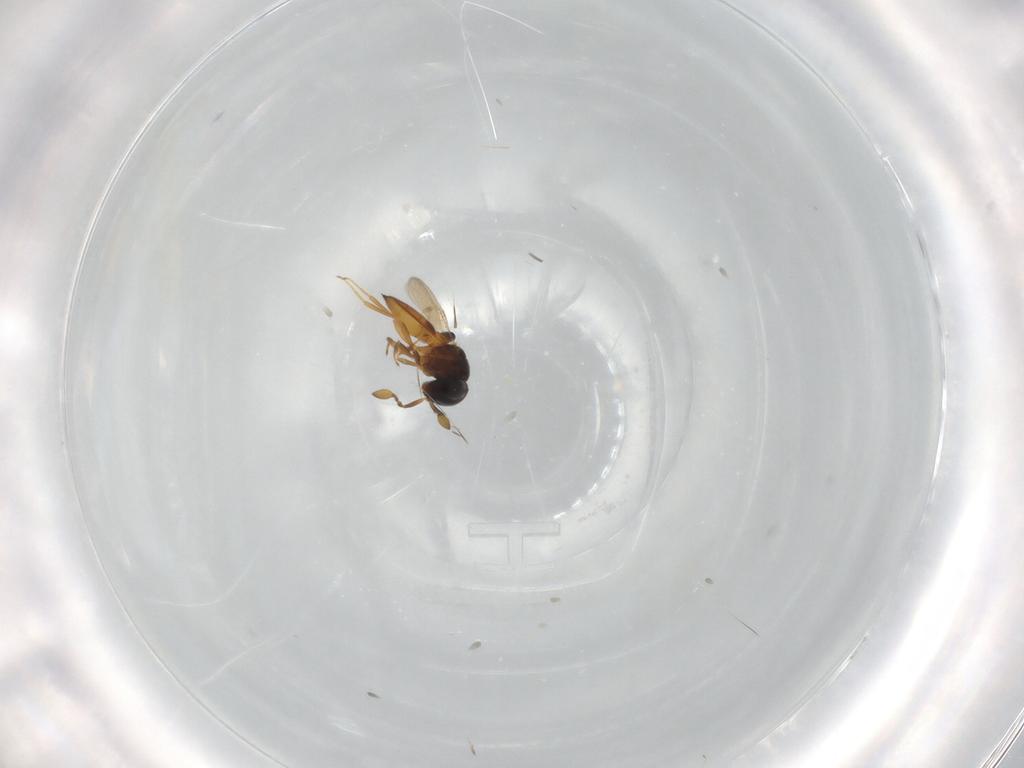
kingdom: Animalia
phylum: Arthropoda
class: Insecta
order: Hymenoptera
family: Scelionidae
